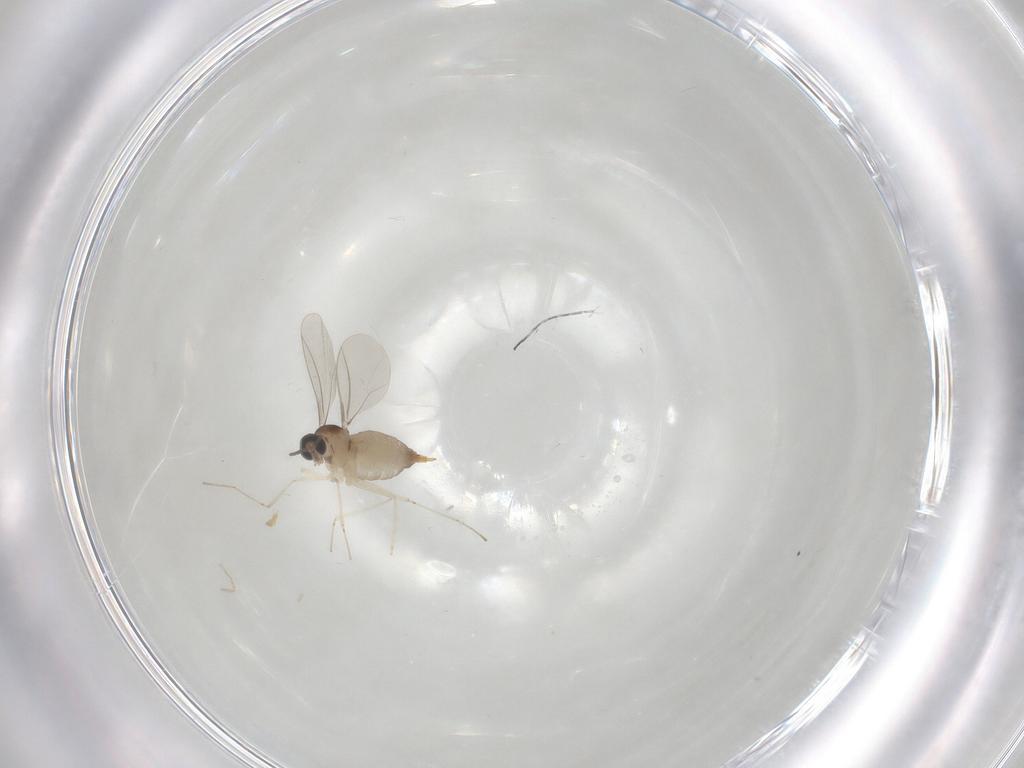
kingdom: Animalia
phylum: Arthropoda
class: Insecta
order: Diptera
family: Cecidomyiidae
